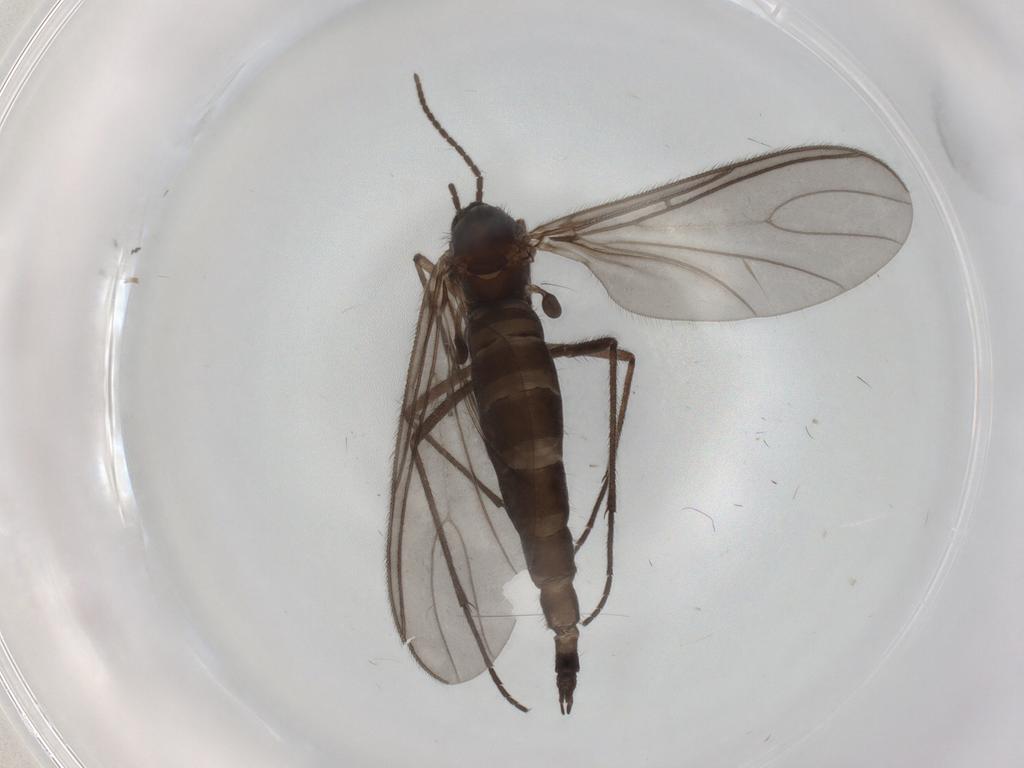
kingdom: Animalia
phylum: Arthropoda
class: Insecta
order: Diptera
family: Sciaridae
